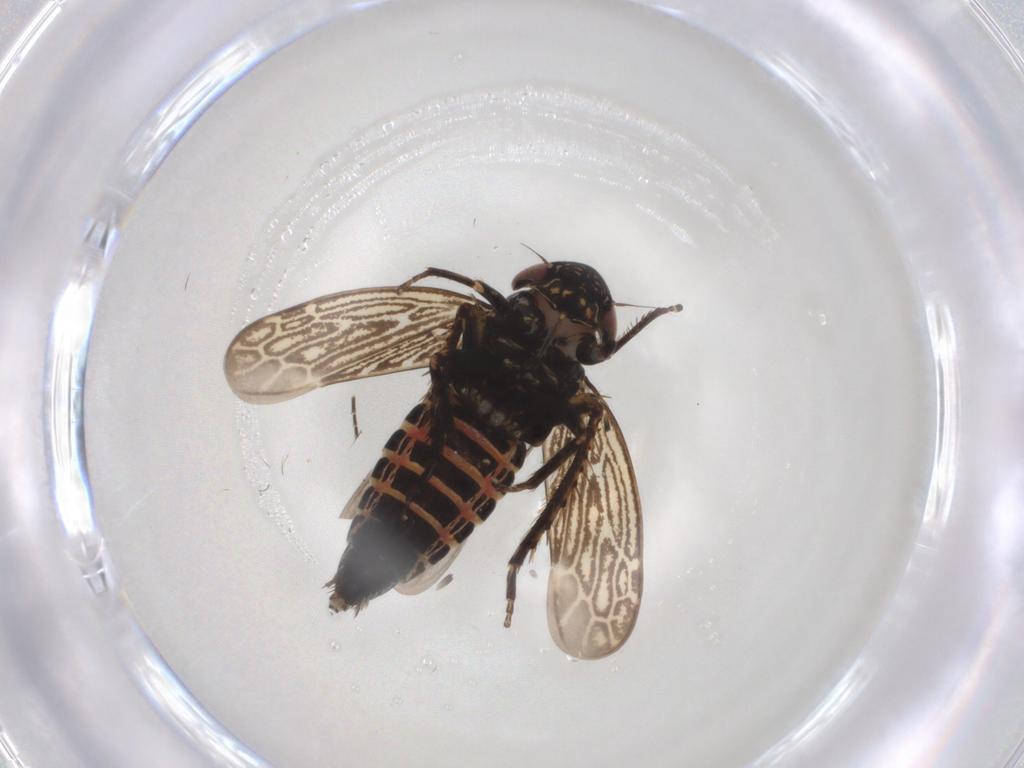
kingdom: Animalia
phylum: Arthropoda
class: Insecta
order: Hemiptera
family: Cicadellidae
